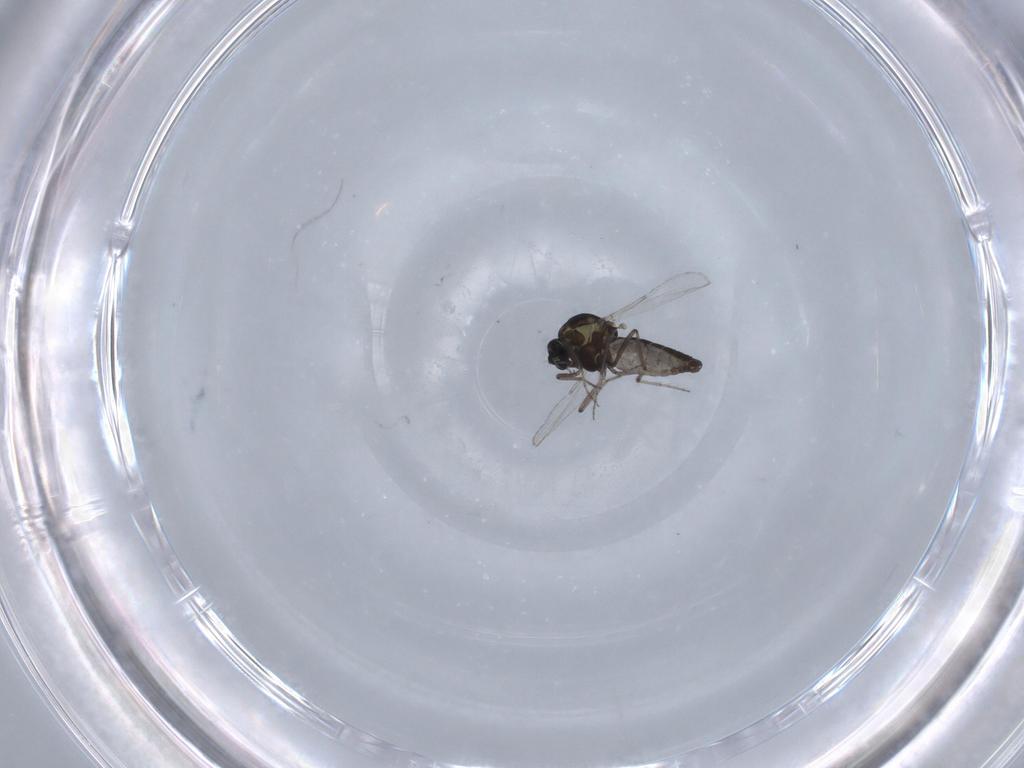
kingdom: Animalia
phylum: Arthropoda
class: Insecta
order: Diptera
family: Ceratopogonidae
